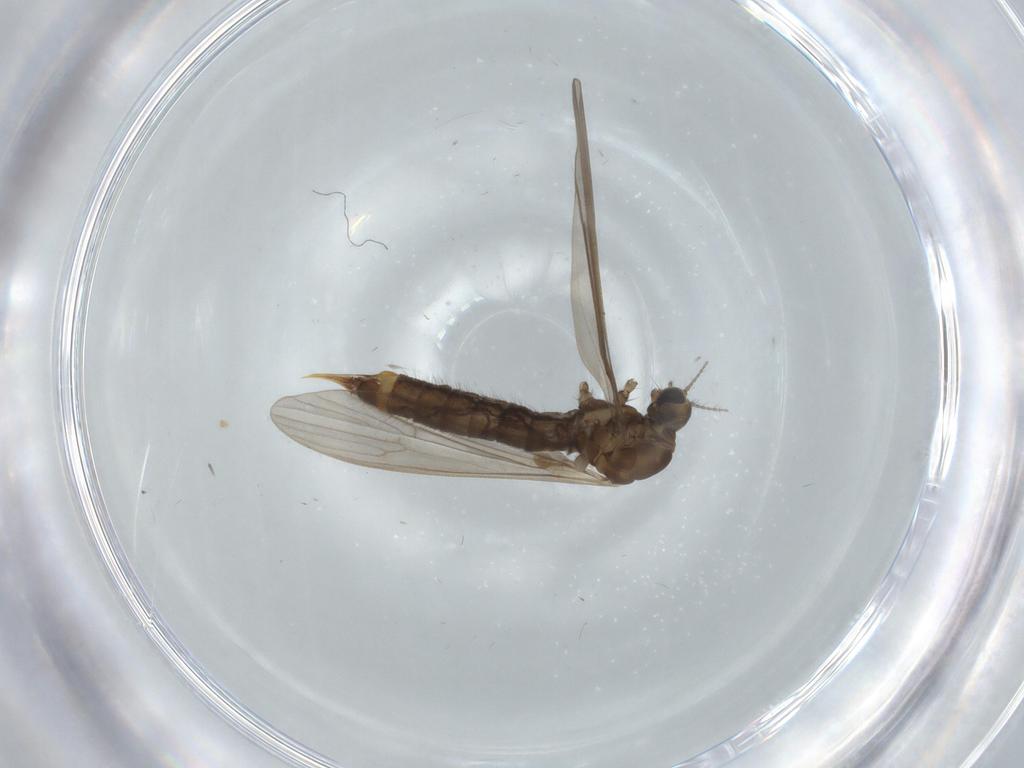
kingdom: Animalia
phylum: Arthropoda
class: Insecta
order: Diptera
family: Limoniidae
